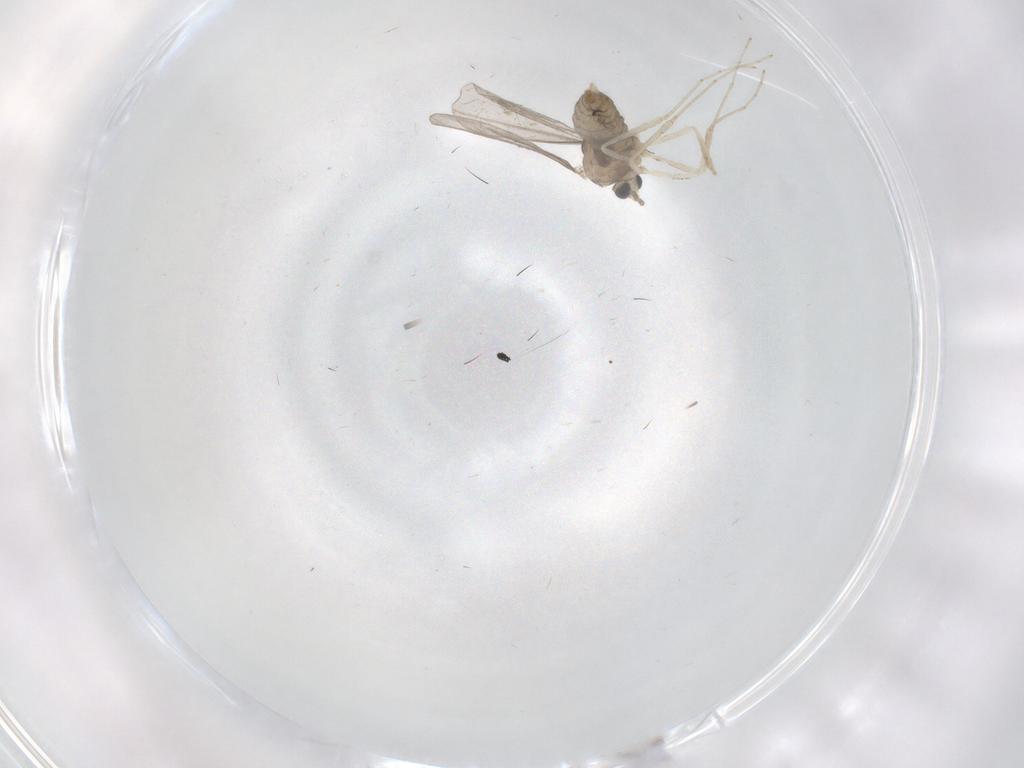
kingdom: Animalia
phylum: Arthropoda
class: Insecta
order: Diptera
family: Cecidomyiidae
